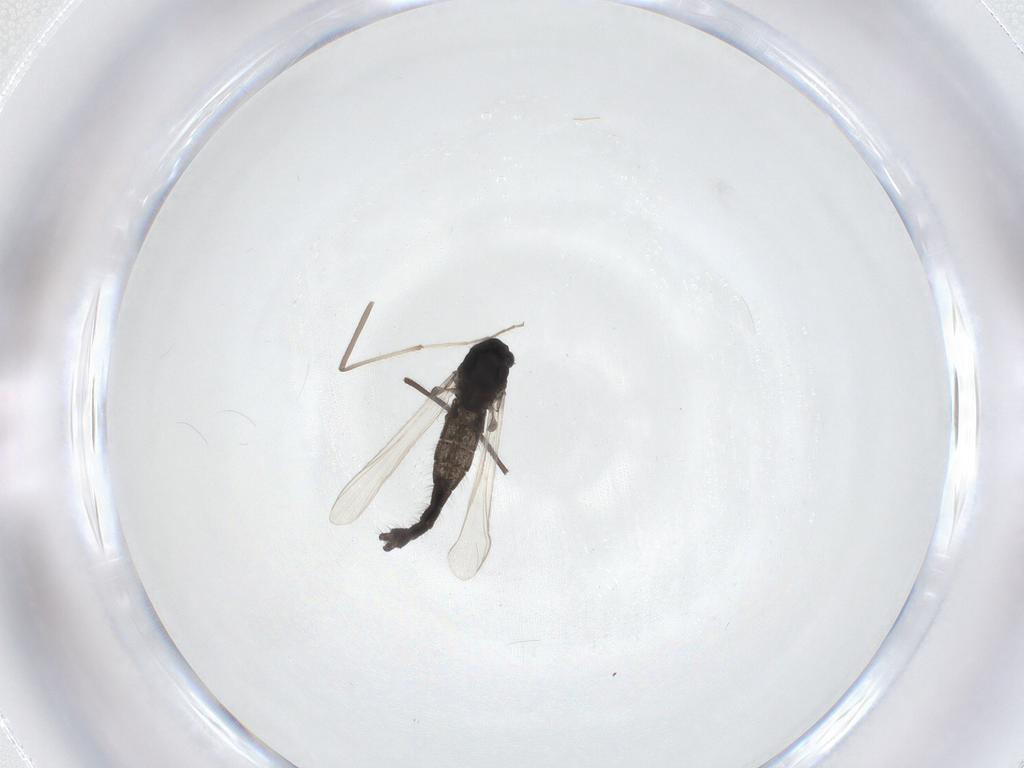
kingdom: Animalia
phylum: Arthropoda
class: Insecta
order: Diptera
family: Chironomidae
